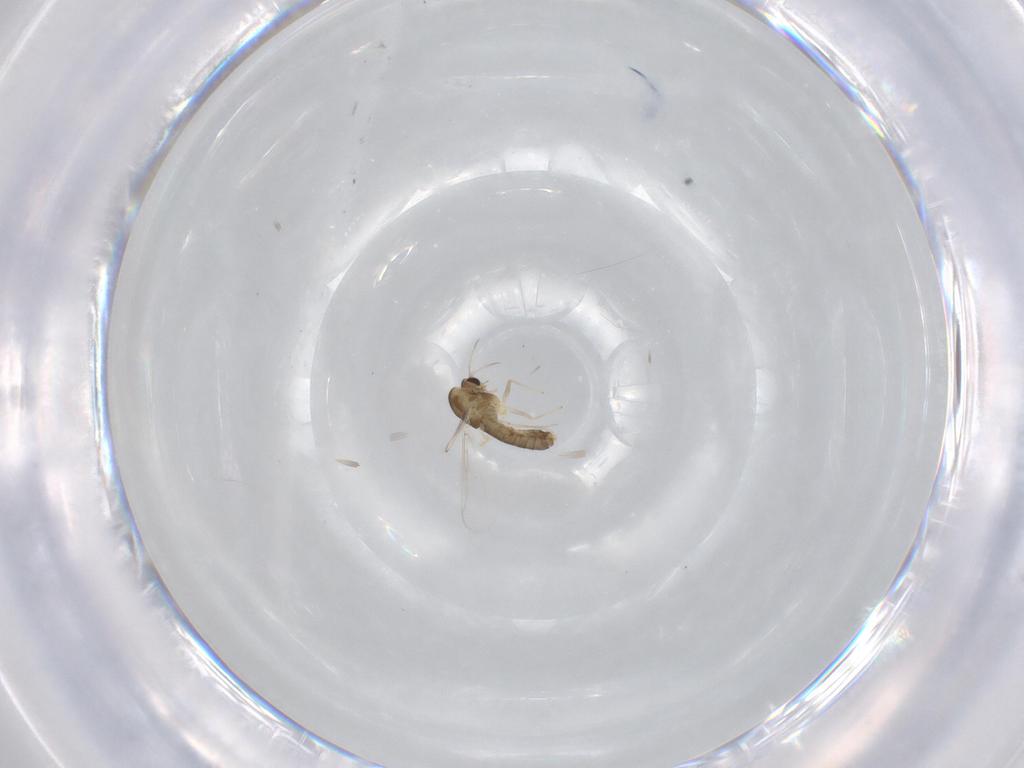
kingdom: Animalia
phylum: Arthropoda
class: Insecta
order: Diptera
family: Chironomidae
